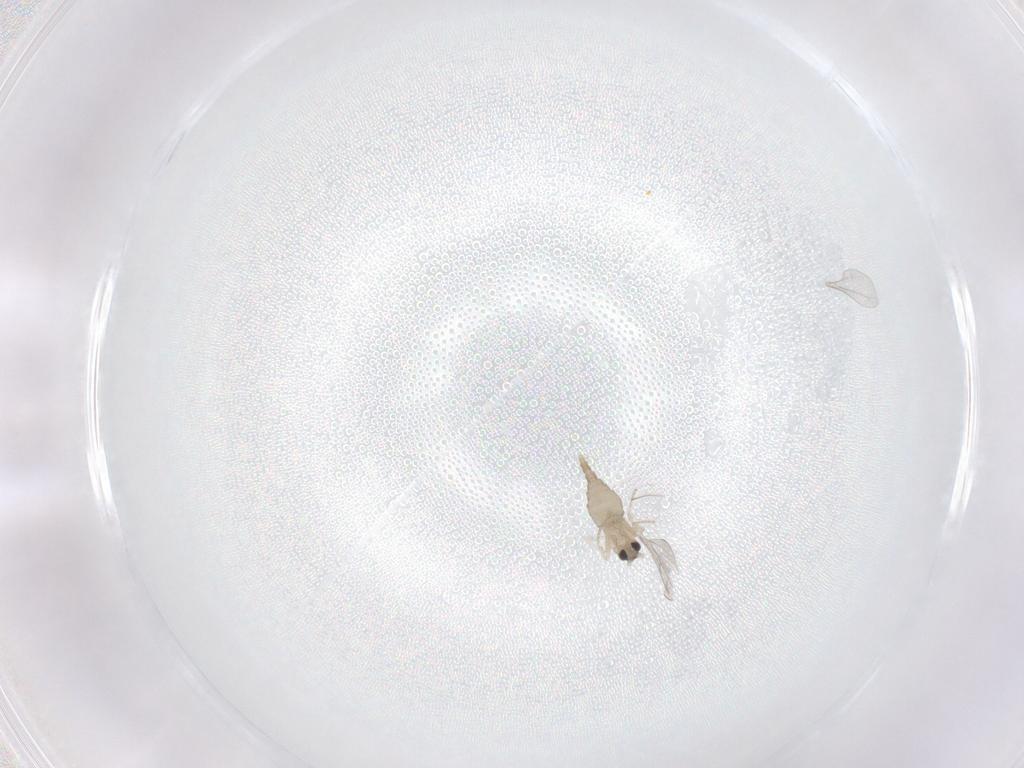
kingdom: Animalia
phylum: Arthropoda
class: Insecta
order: Diptera
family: Cecidomyiidae
